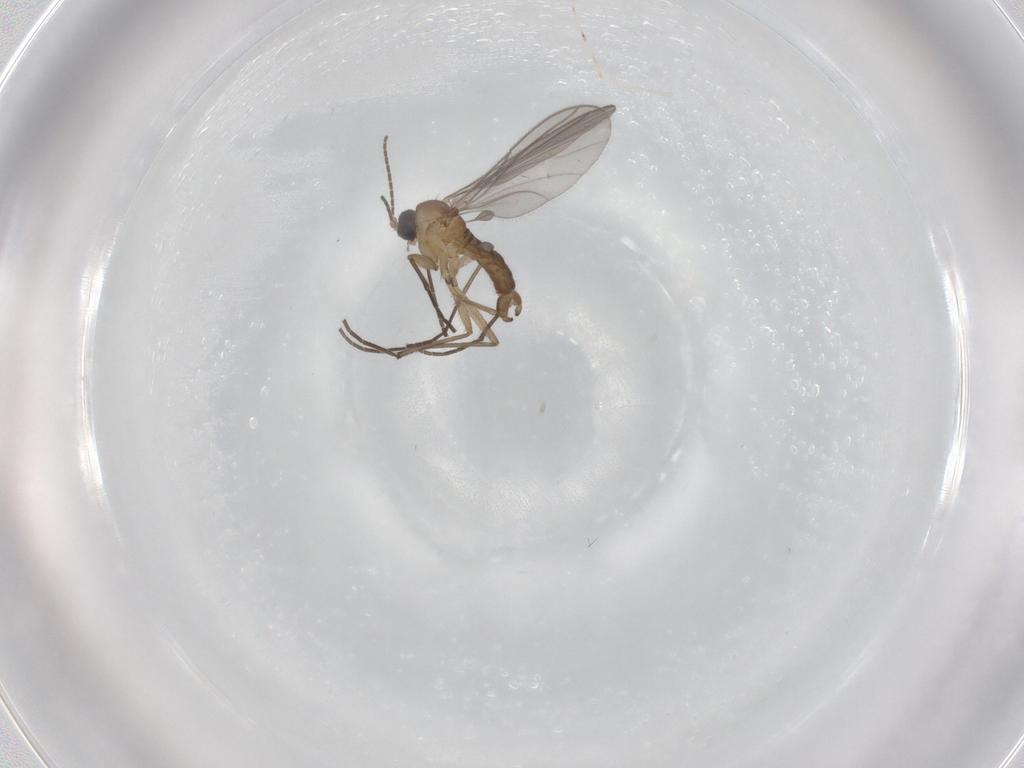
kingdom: Animalia
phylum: Arthropoda
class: Insecta
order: Diptera
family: Cecidomyiidae
